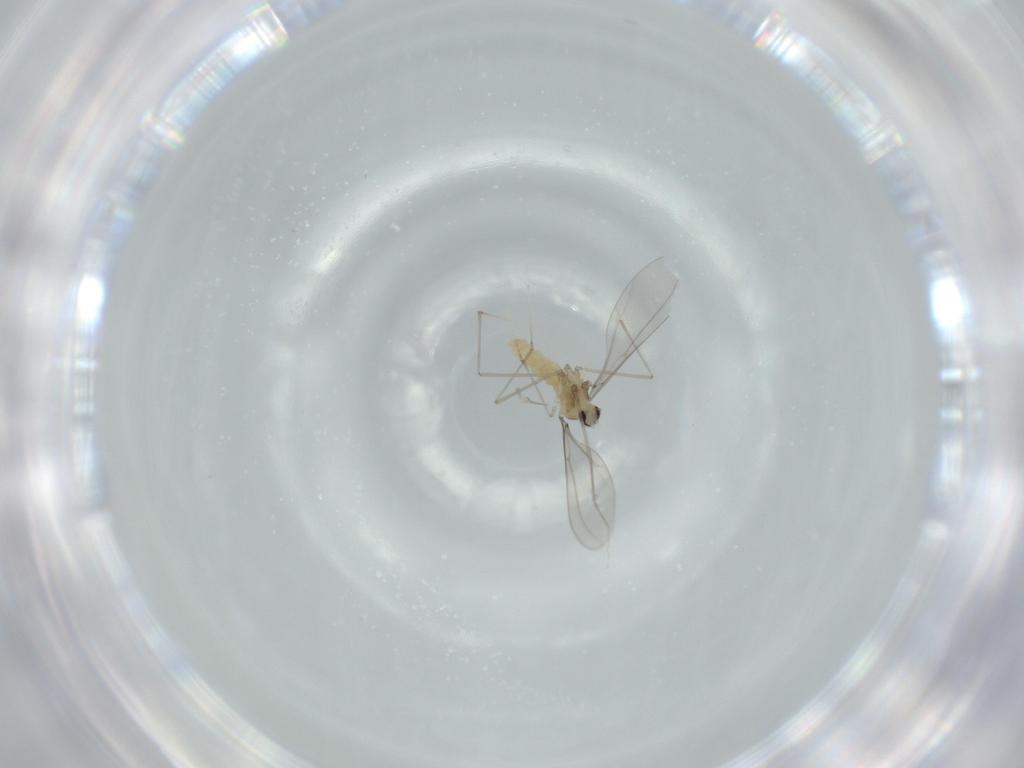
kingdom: Animalia
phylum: Arthropoda
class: Insecta
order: Diptera
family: Cecidomyiidae
